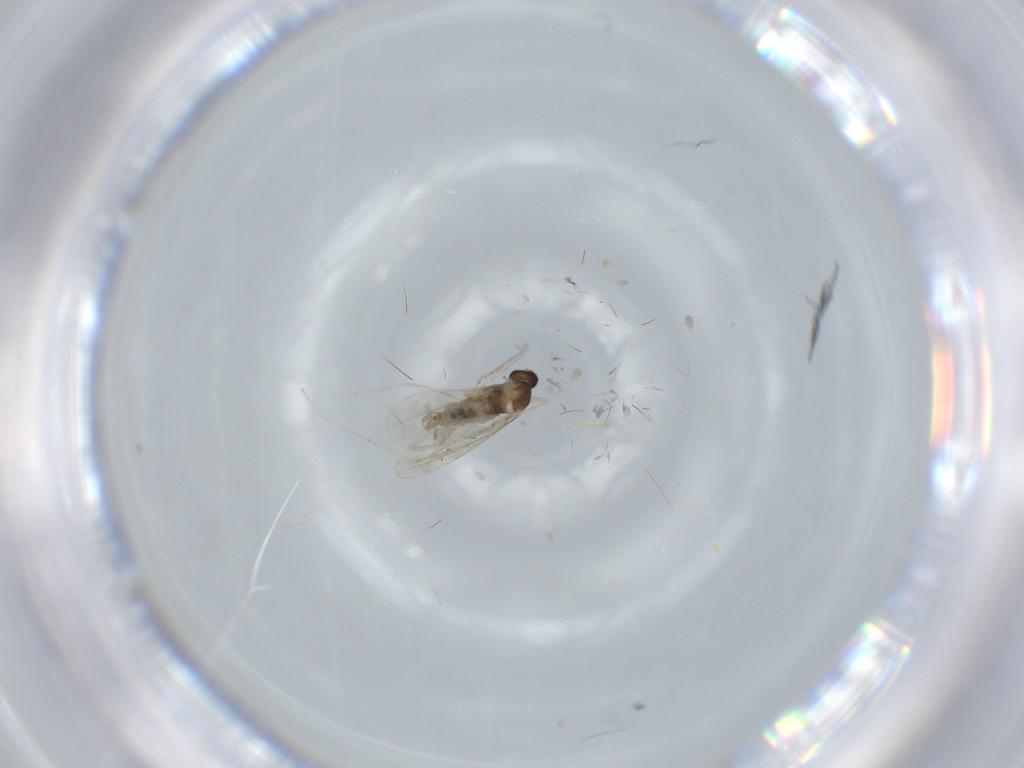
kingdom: Animalia
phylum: Arthropoda
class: Insecta
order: Diptera
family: Cecidomyiidae
